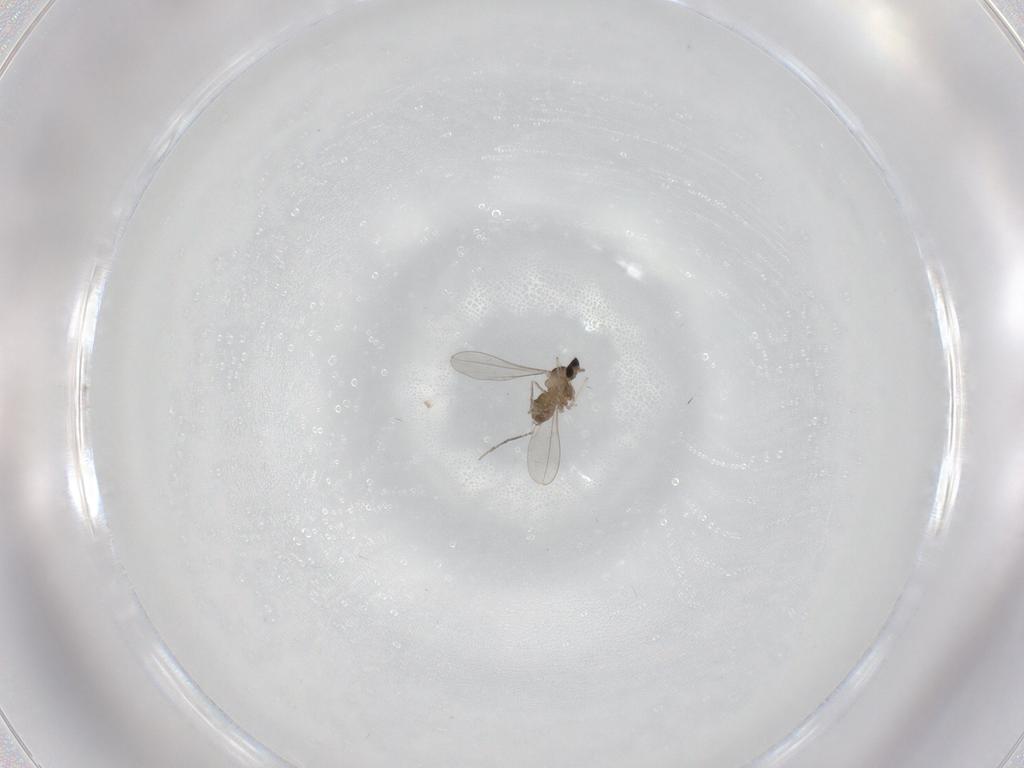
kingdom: Animalia
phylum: Arthropoda
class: Insecta
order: Diptera
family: Cecidomyiidae
